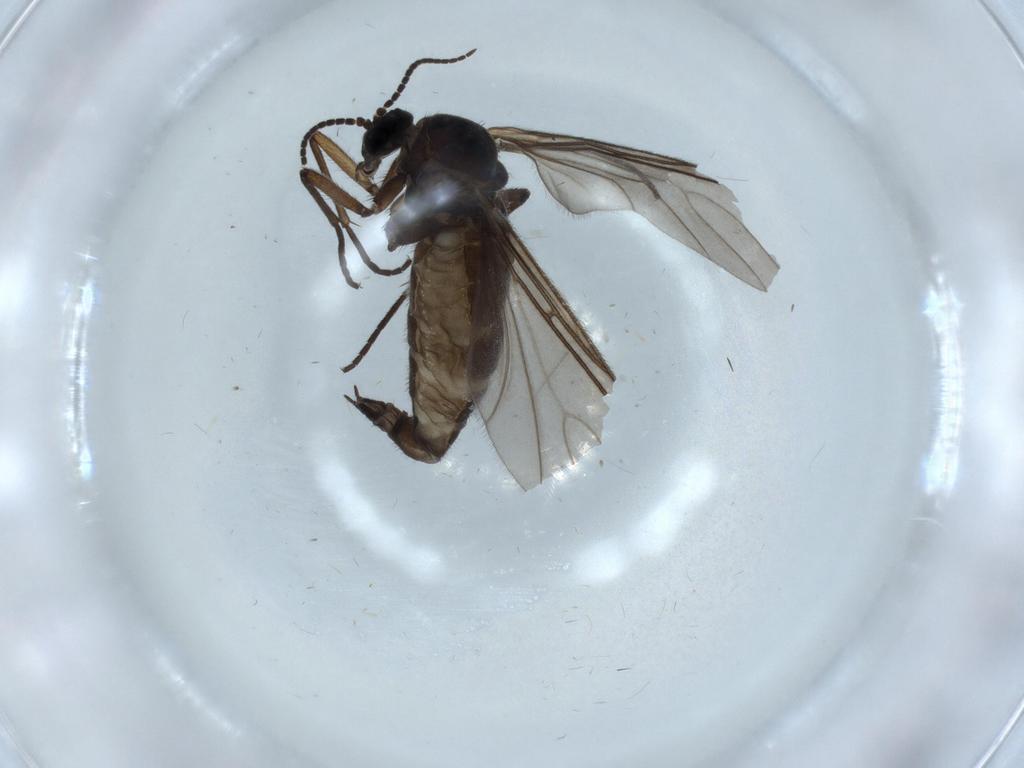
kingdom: Animalia
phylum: Arthropoda
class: Insecta
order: Diptera
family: Sciaridae
